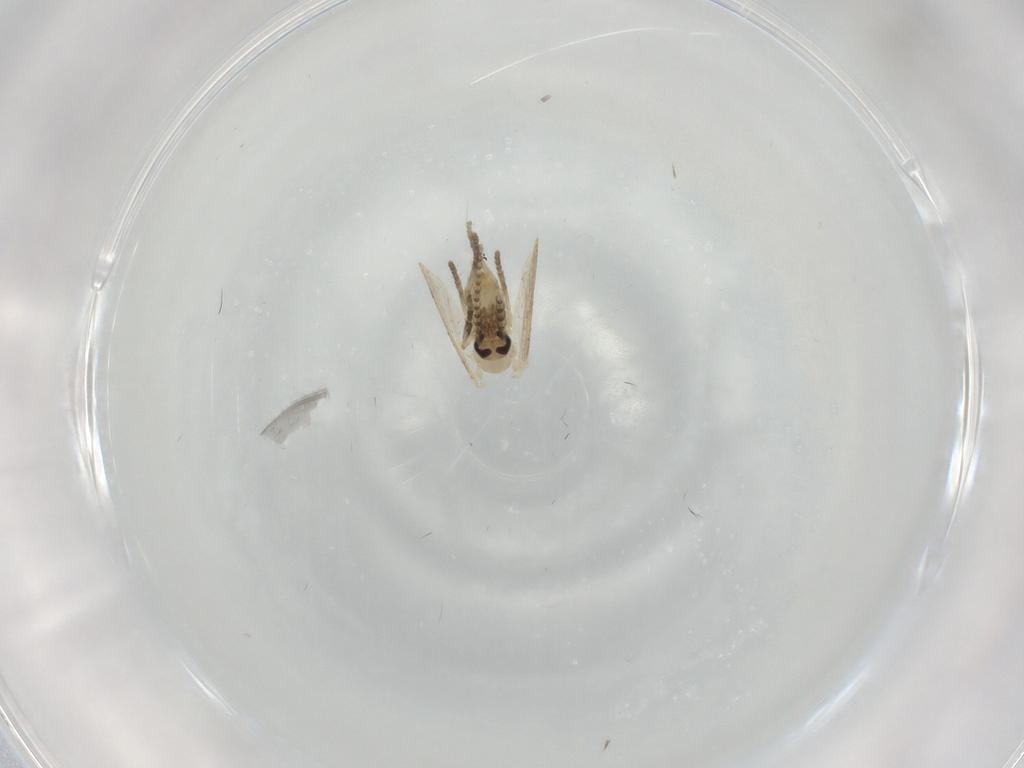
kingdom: Animalia
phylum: Arthropoda
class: Insecta
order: Diptera
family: Psychodidae
